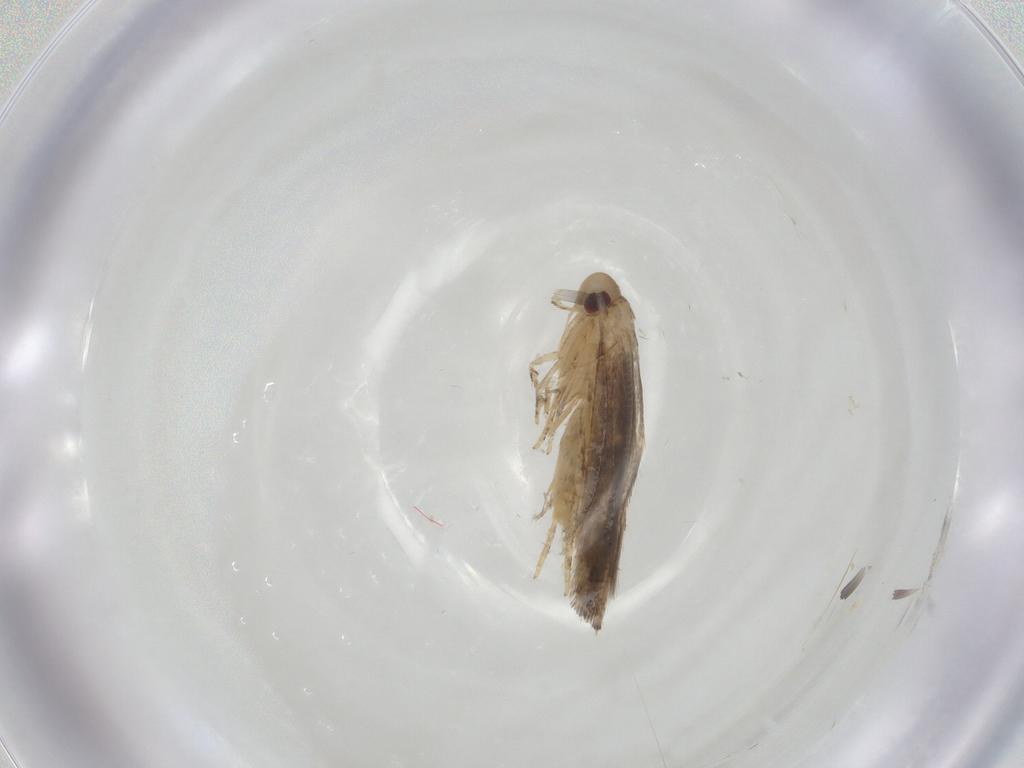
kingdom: Animalia
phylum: Arthropoda
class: Insecta
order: Lepidoptera
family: Momphidae
